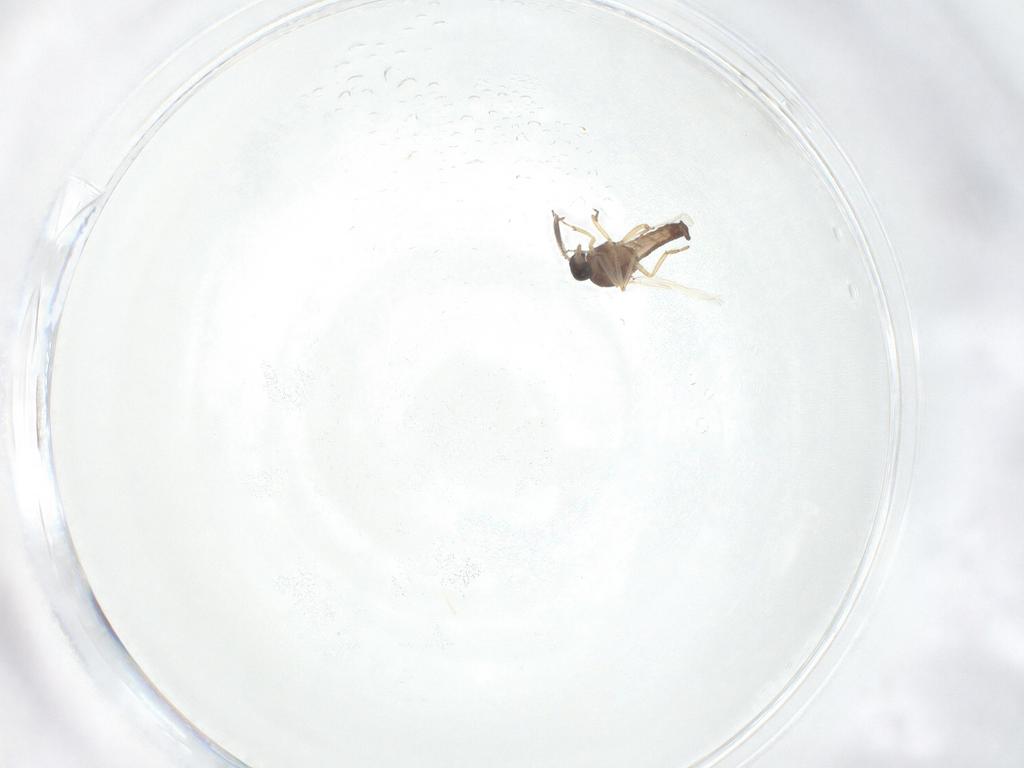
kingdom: Animalia
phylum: Arthropoda
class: Insecta
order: Diptera
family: Ceratopogonidae
